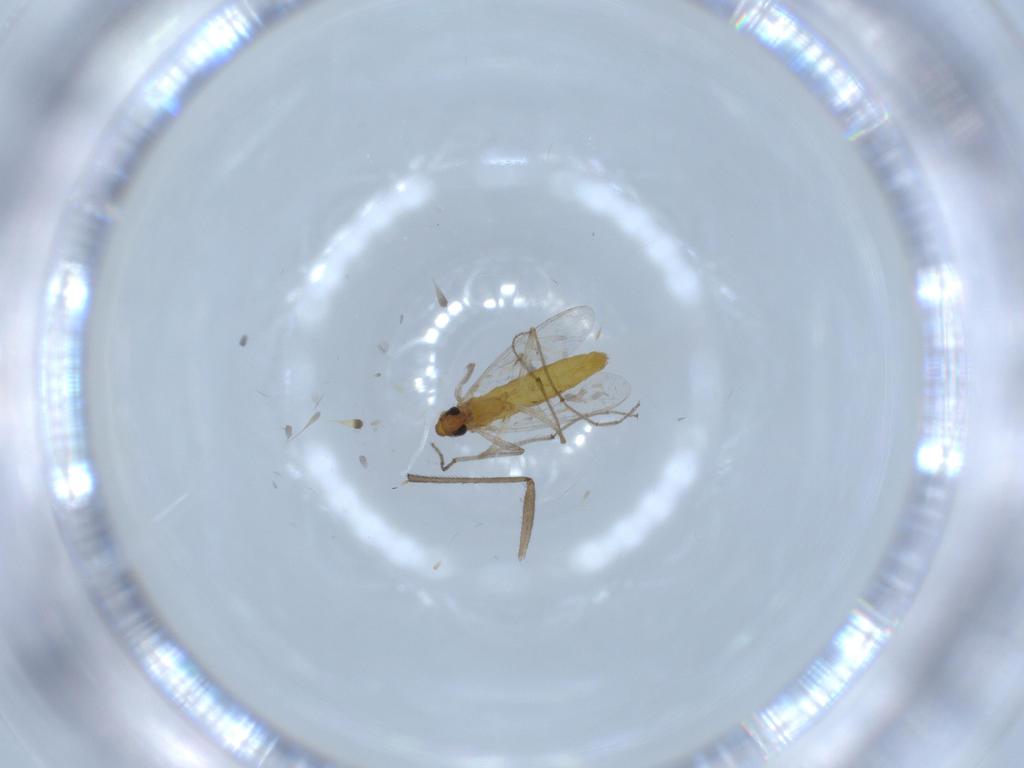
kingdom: Animalia
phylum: Arthropoda
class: Insecta
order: Diptera
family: Chironomidae
